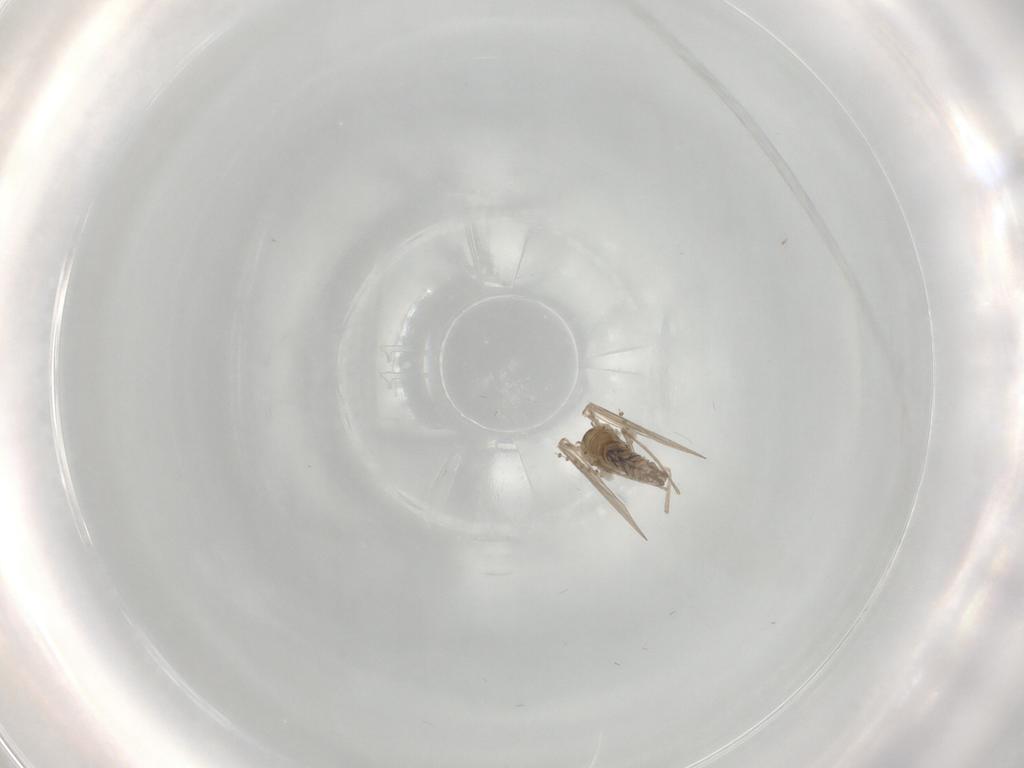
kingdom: Animalia
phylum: Arthropoda
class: Insecta
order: Diptera
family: Psychodidae
